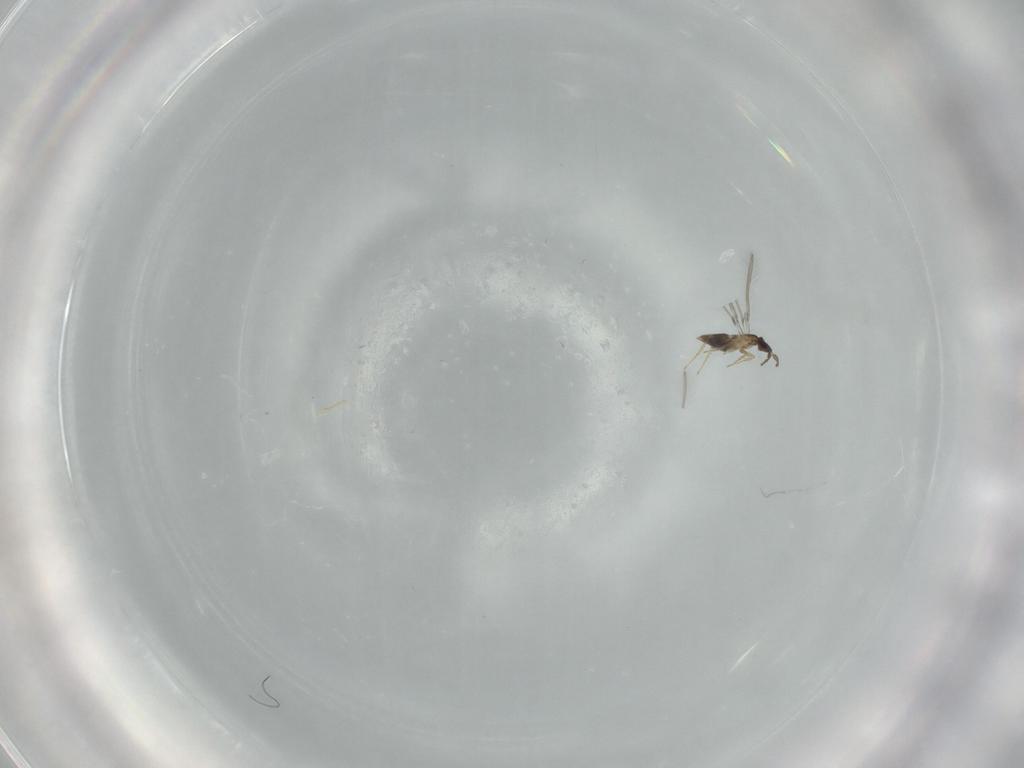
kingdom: Animalia
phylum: Arthropoda
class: Insecta
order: Hymenoptera
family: Mymaridae
